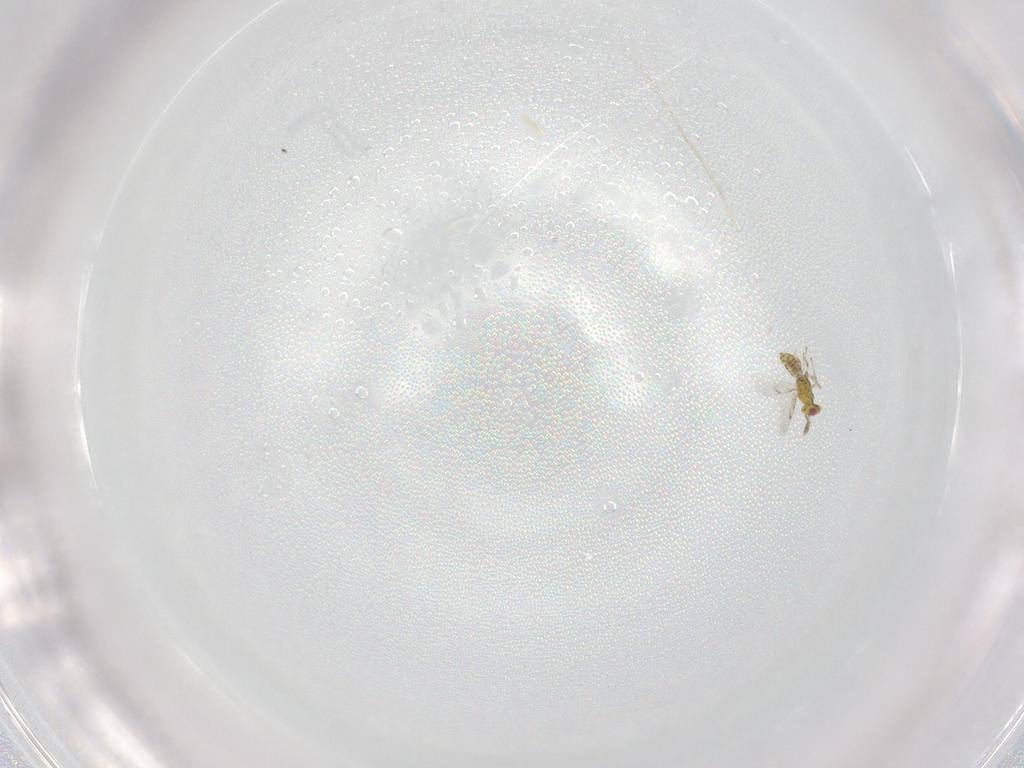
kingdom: Animalia
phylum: Arthropoda
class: Insecta
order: Hymenoptera
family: Eulophidae
